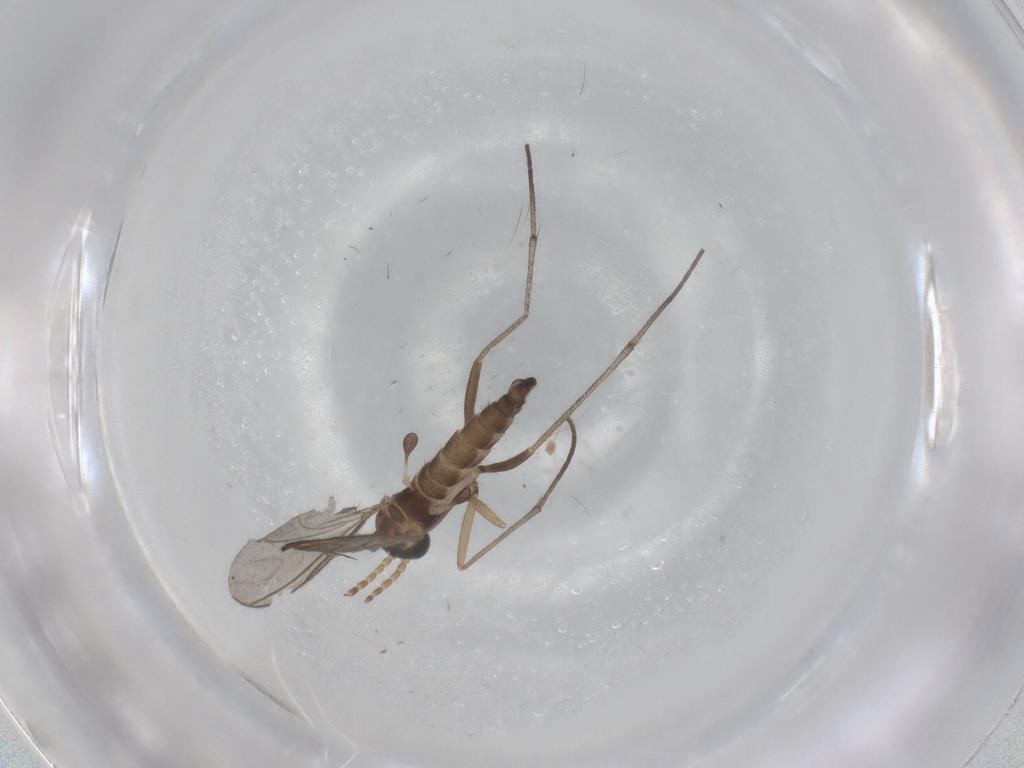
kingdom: Animalia
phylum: Arthropoda
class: Insecta
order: Diptera
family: Sciaridae
